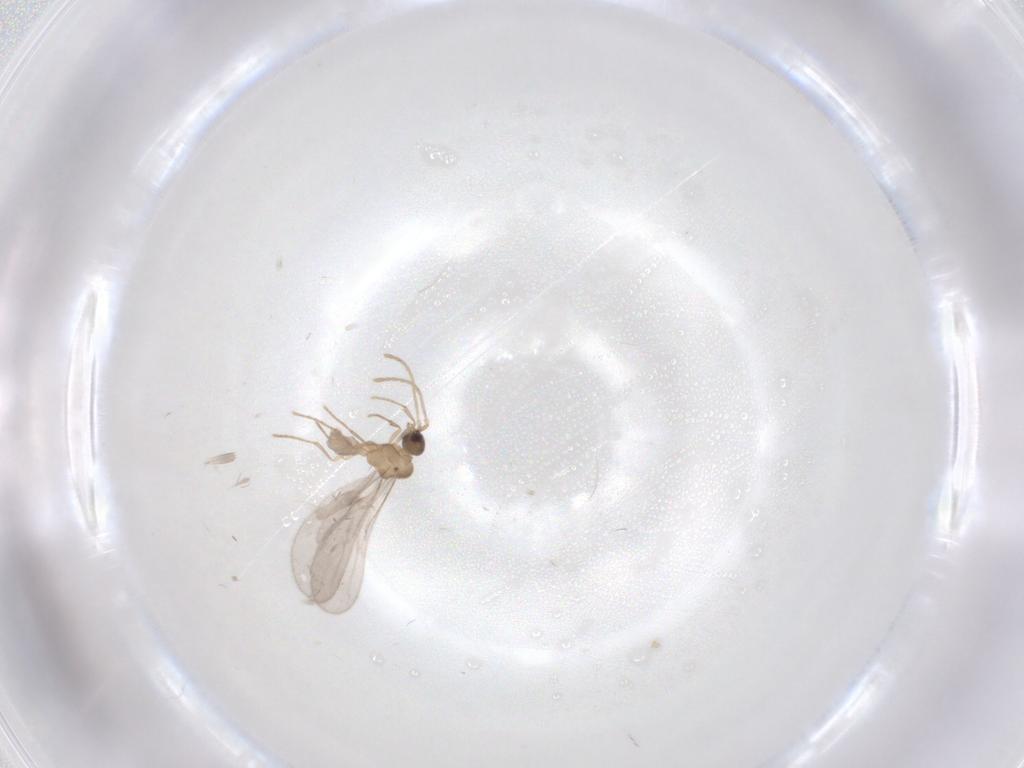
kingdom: Animalia
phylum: Arthropoda
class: Insecta
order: Hymenoptera
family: Formicidae
